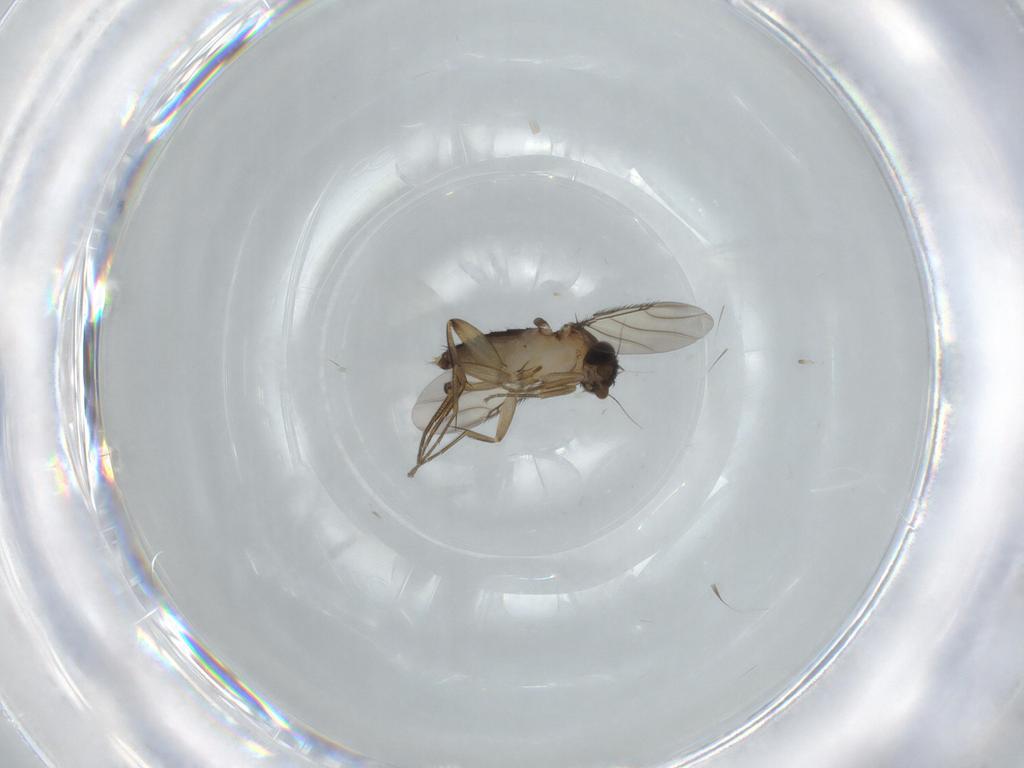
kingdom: Animalia
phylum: Arthropoda
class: Insecta
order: Diptera
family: Phoridae
